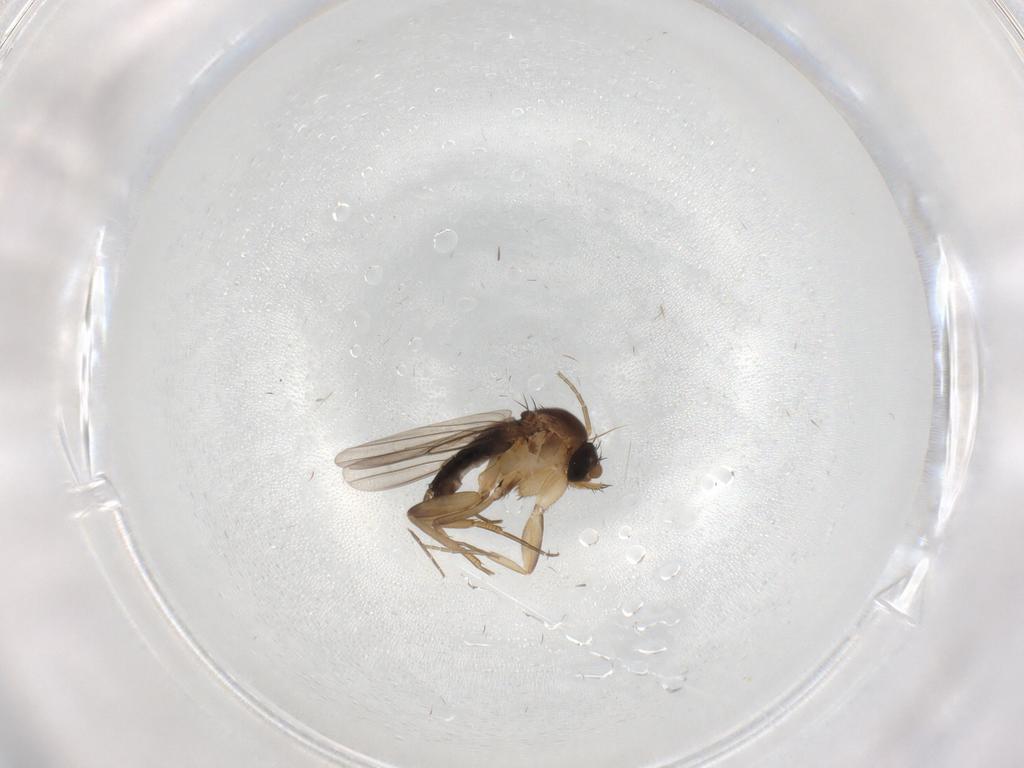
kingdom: Animalia
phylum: Arthropoda
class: Insecta
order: Diptera
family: Phoridae
